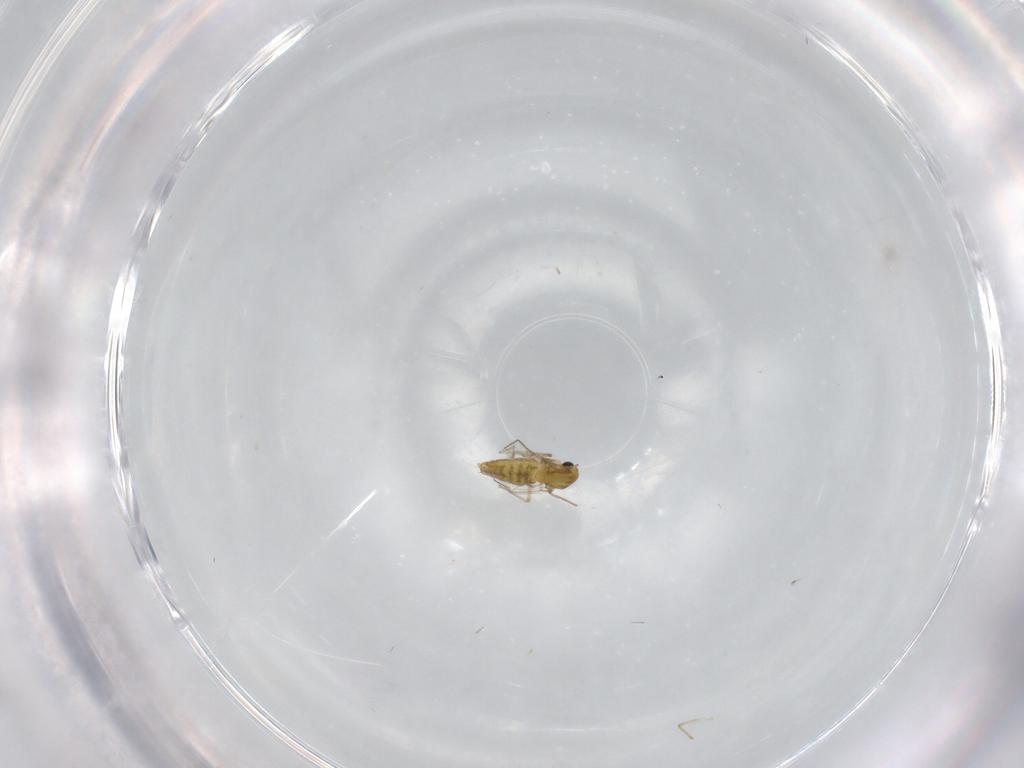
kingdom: Animalia
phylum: Arthropoda
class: Insecta
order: Diptera
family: Chironomidae
